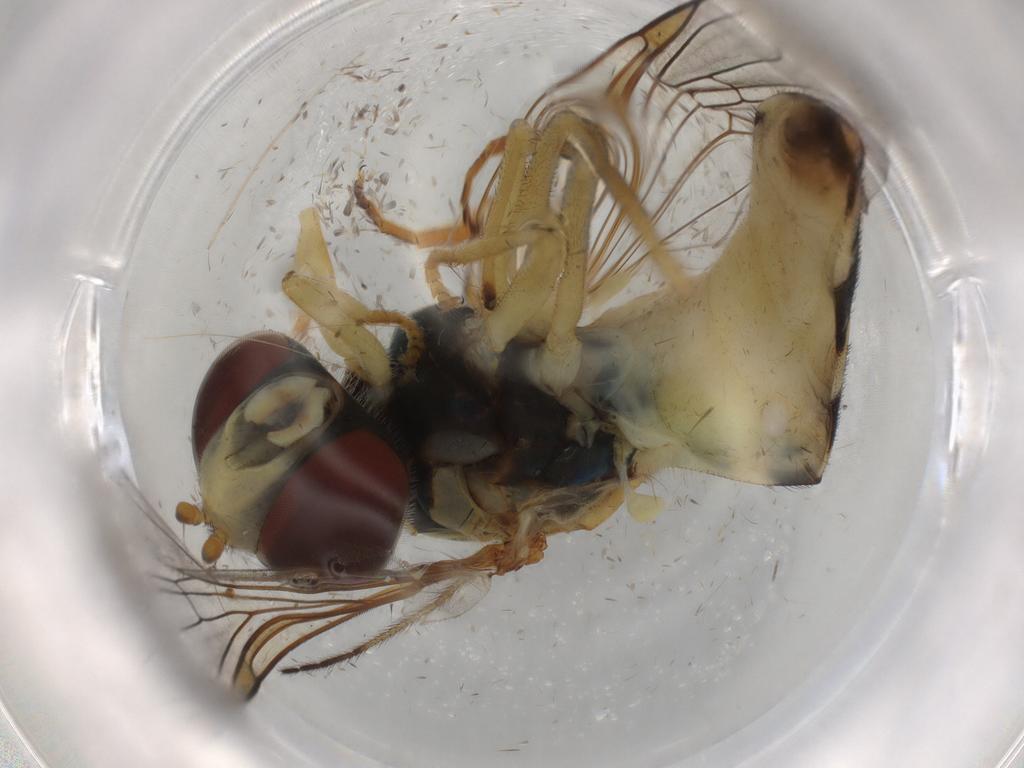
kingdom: Animalia
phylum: Arthropoda
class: Insecta
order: Diptera
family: Syrphidae
